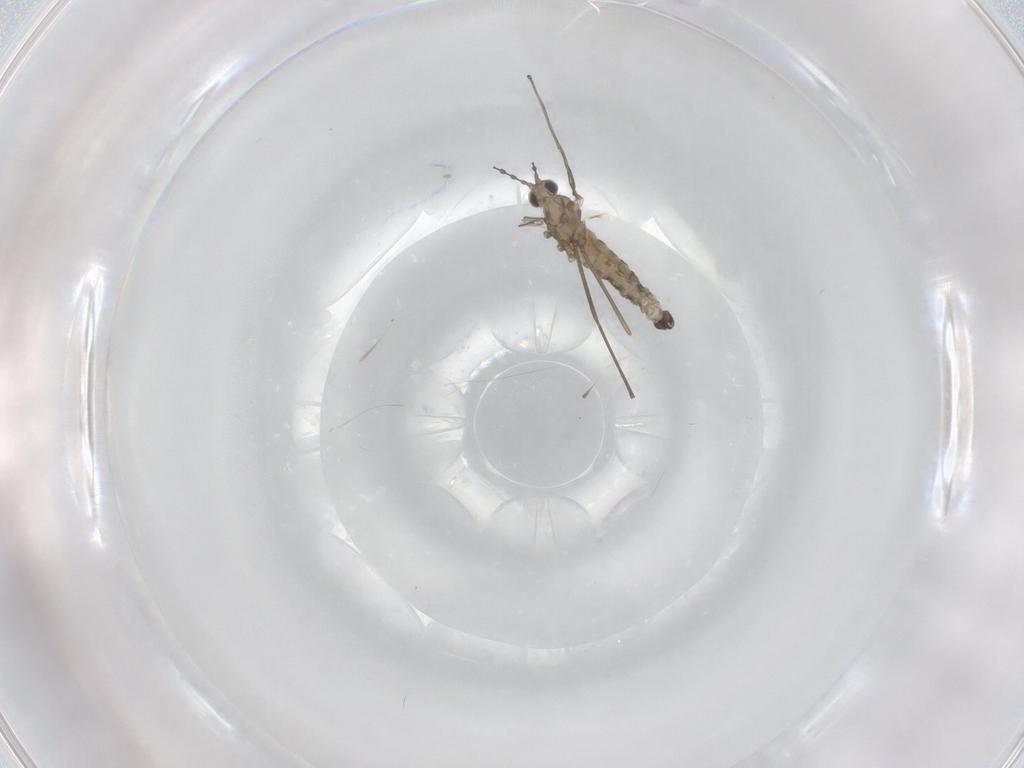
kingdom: Animalia
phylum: Arthropoda
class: Insecta
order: Diptera
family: Cecidomyiidae
